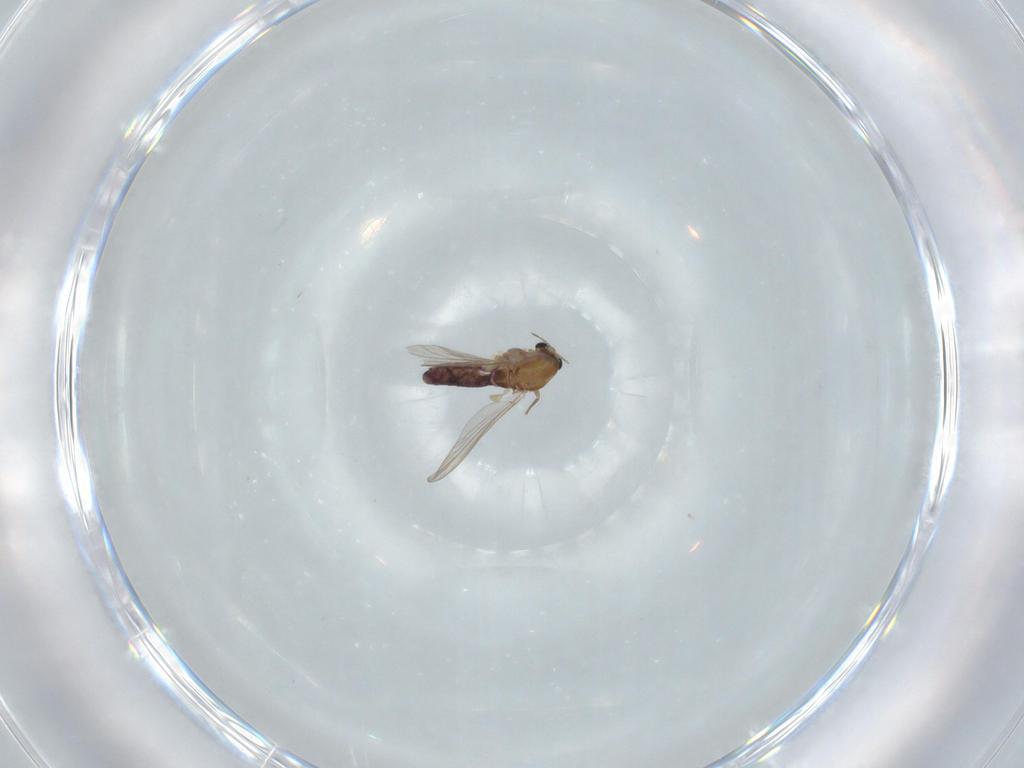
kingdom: Animalia
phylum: Arthropoda
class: Insecta
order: Diptera
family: Chironomidae
